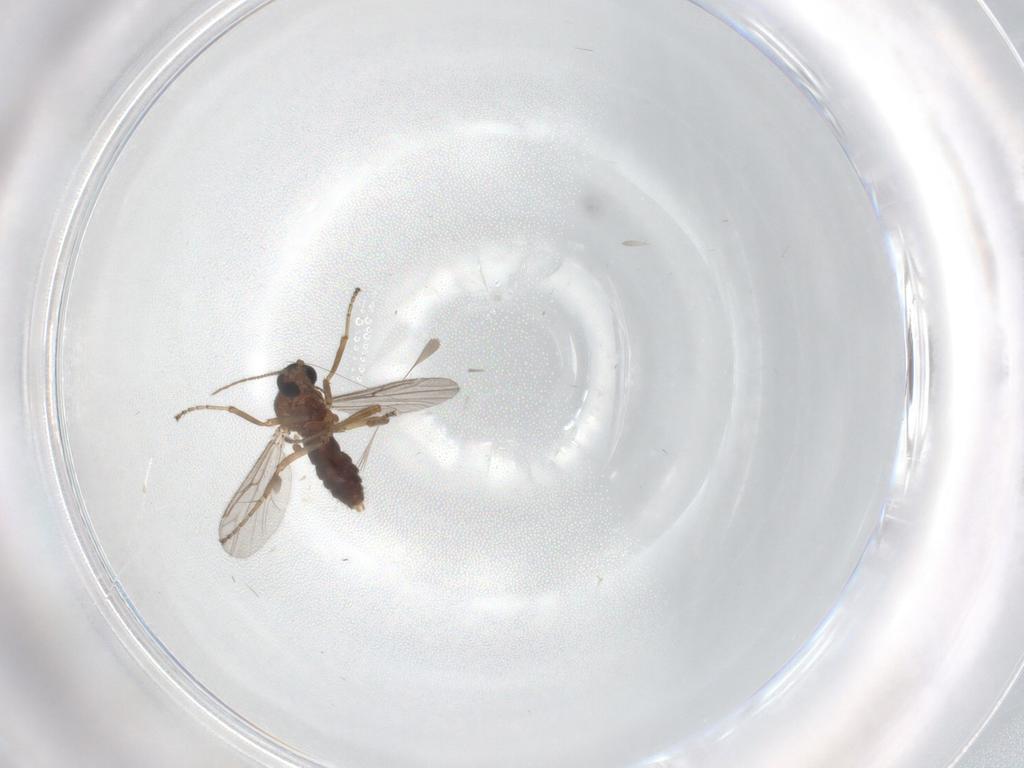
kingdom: Animalia
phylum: Arthropoda
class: Insecta
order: Diptera
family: Ceratopogonidae
